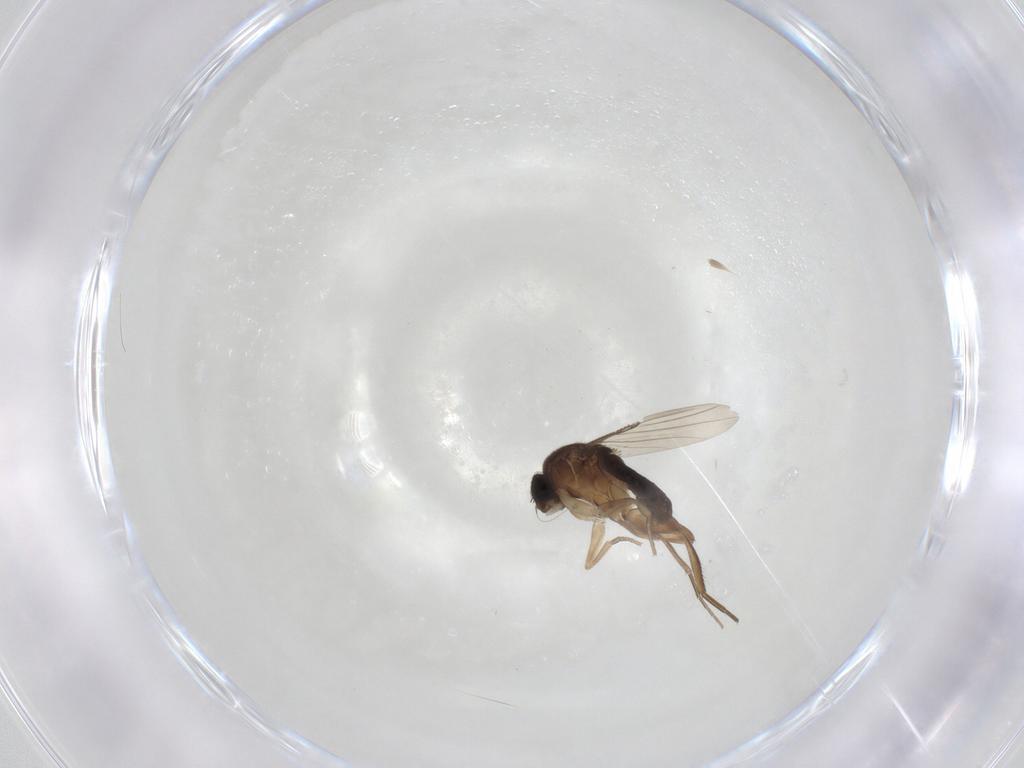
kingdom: Animalia
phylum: Arthropoda
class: Insecta
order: Diptera
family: Phoridae
